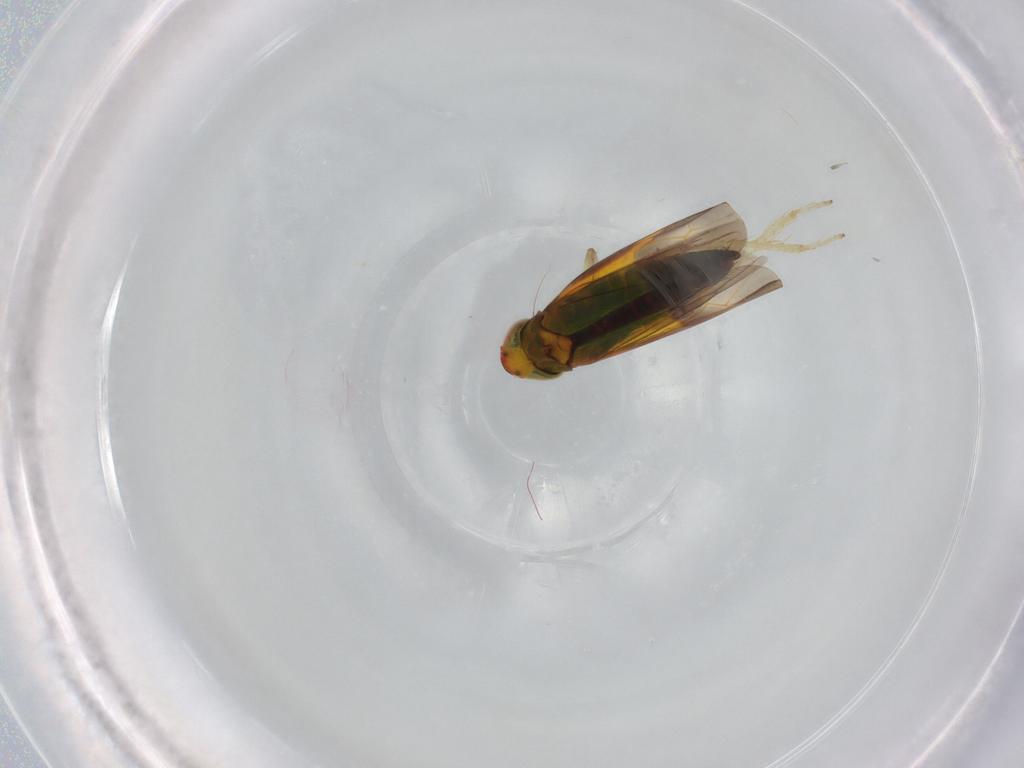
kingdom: Animalia
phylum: Arthropoda
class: Insecta
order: Hemiptera
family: Cicadellidae
